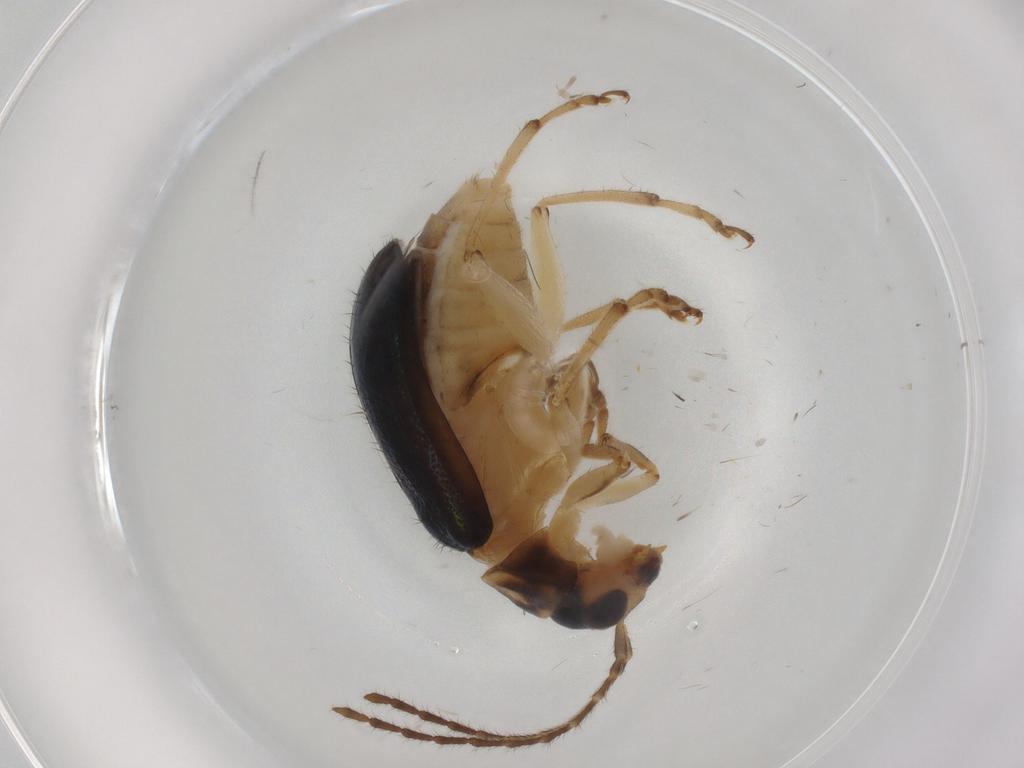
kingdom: Animalia
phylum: Arthropoda
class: Insecta
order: Coleoptera
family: Chrysomelidae
